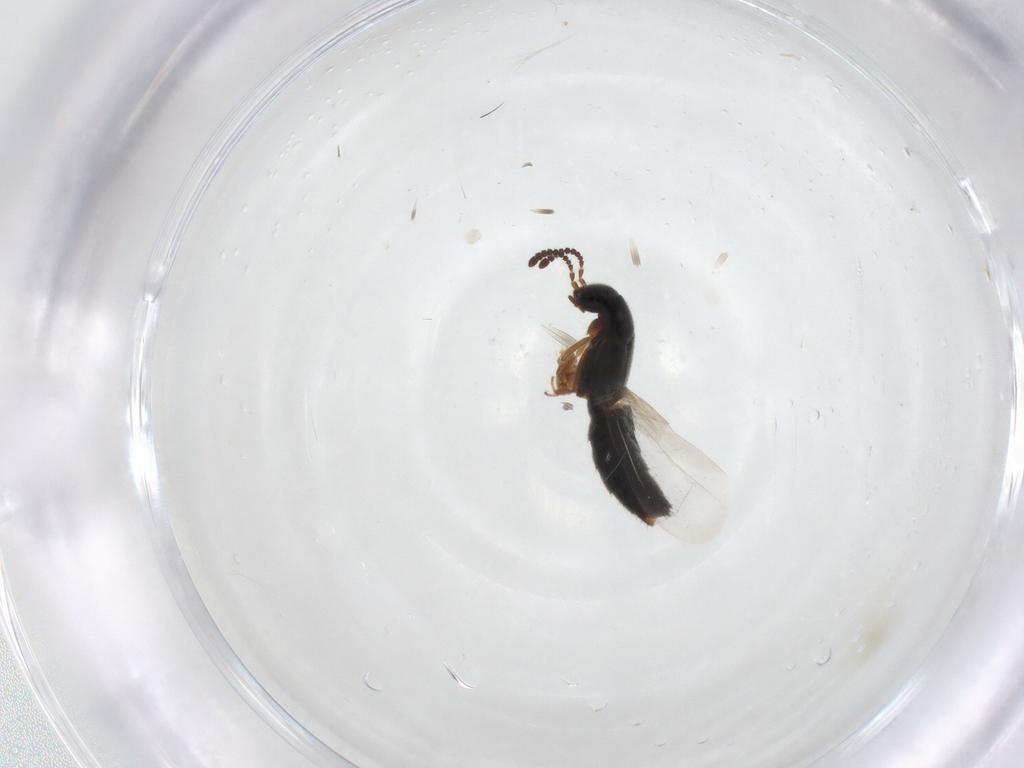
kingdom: Animalia
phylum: Arthropoda
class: Insecta
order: Coleoptera
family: Staphylinidae
